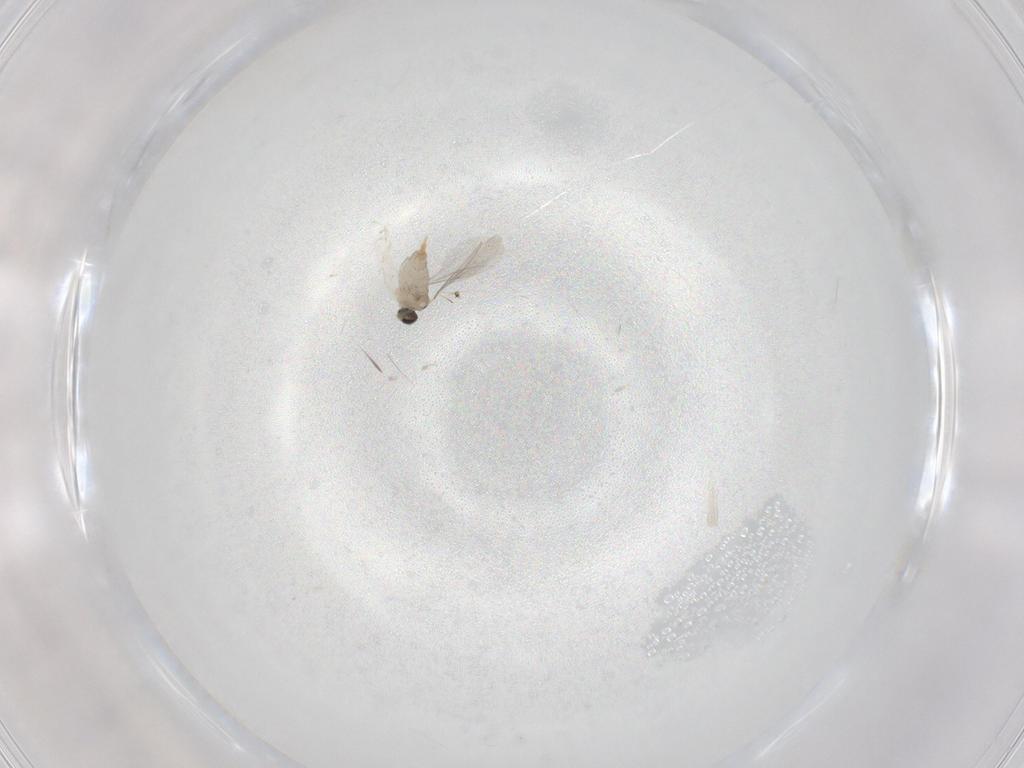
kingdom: Animalia
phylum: Arthropoda
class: Insecta
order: Diptera
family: Cecidomyiidae
